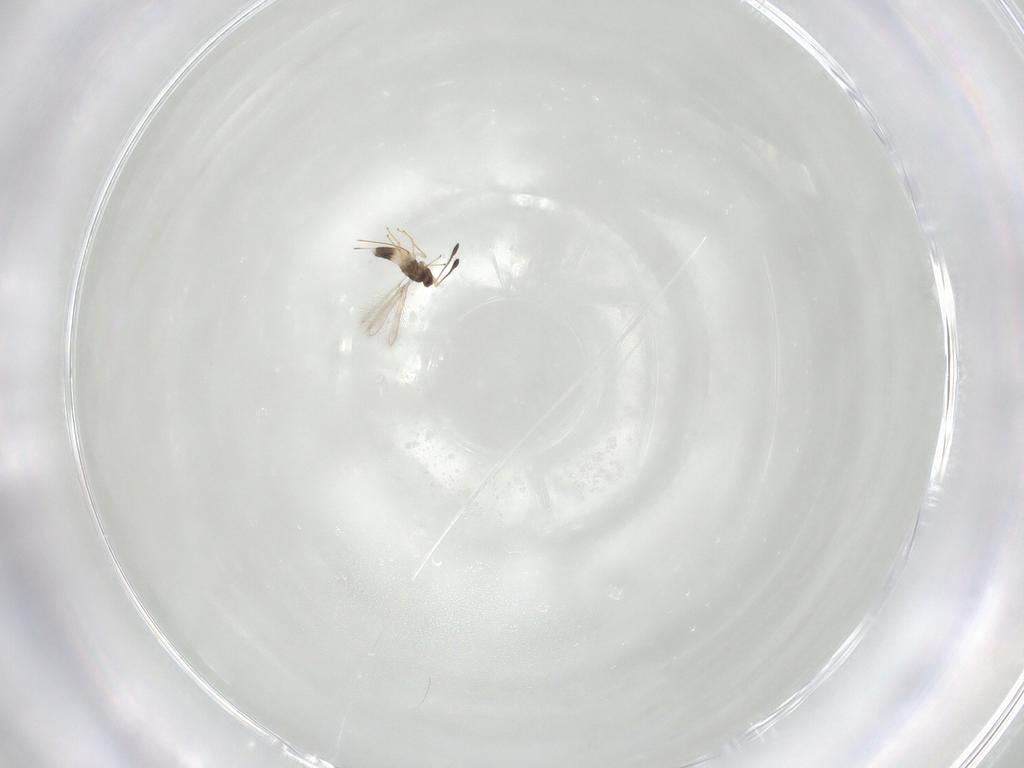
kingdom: Animalia
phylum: Arthropoda
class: Insecta
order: Hymenoptera
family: Mymaridae
